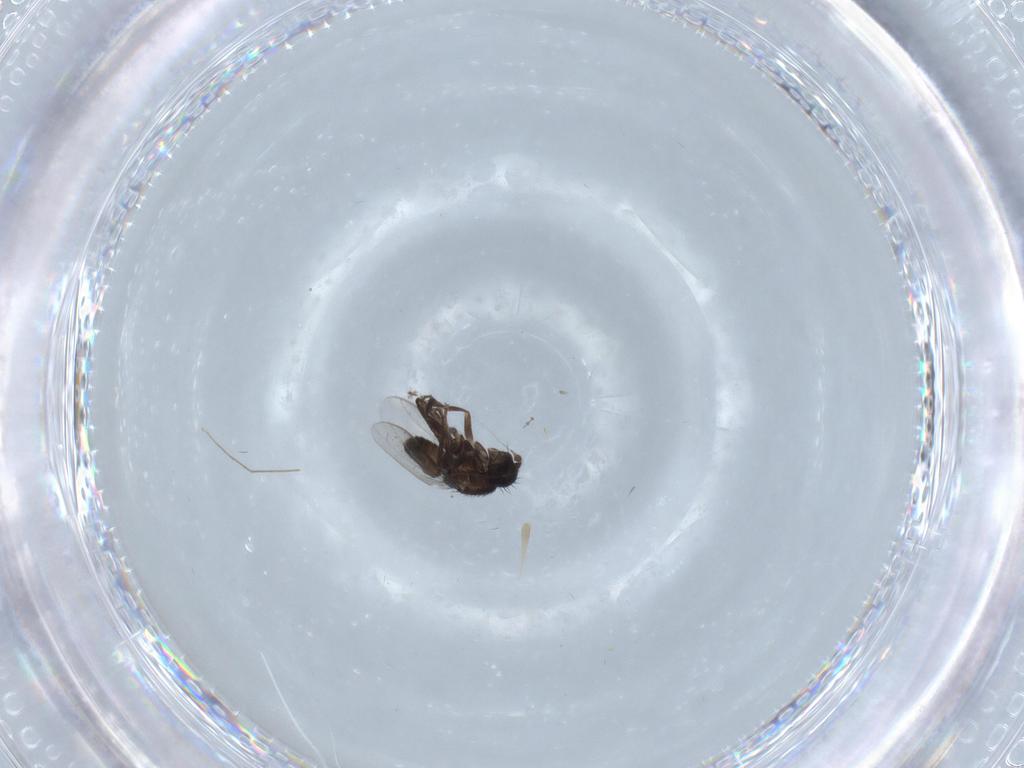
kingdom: Animalia
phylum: Arthropoda
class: Insecta
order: Diptera
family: Sphaeroceridae
